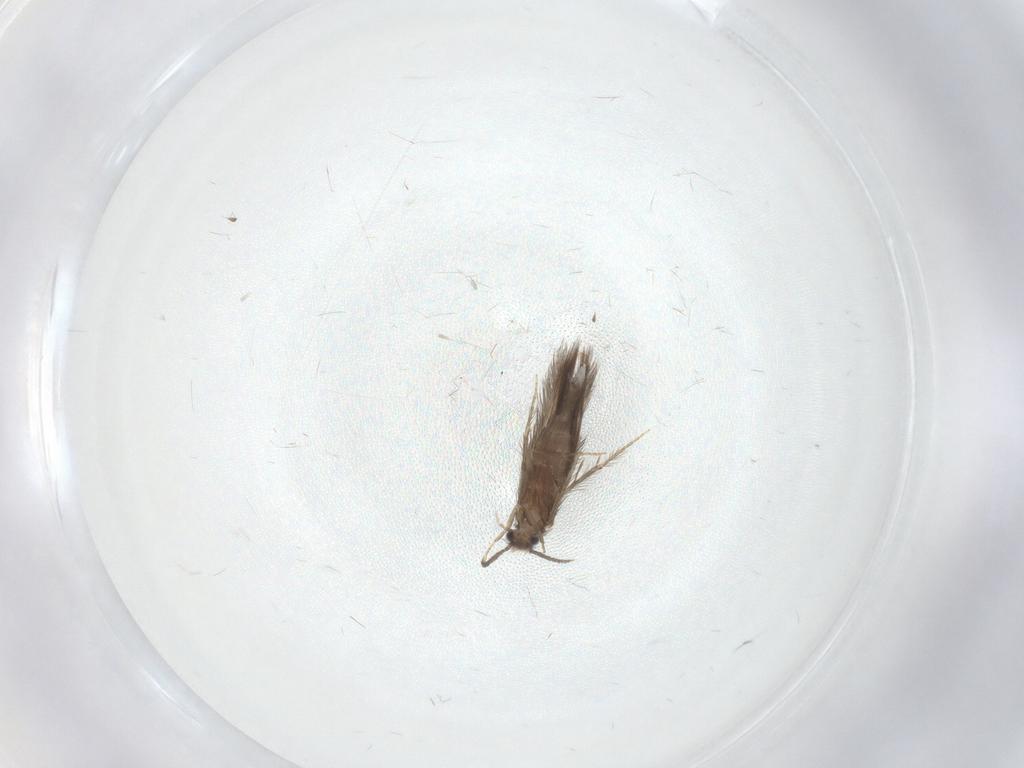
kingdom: Animalia
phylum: Arthropoda
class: Insecta
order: Trichoptera
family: Hydroptilidae
